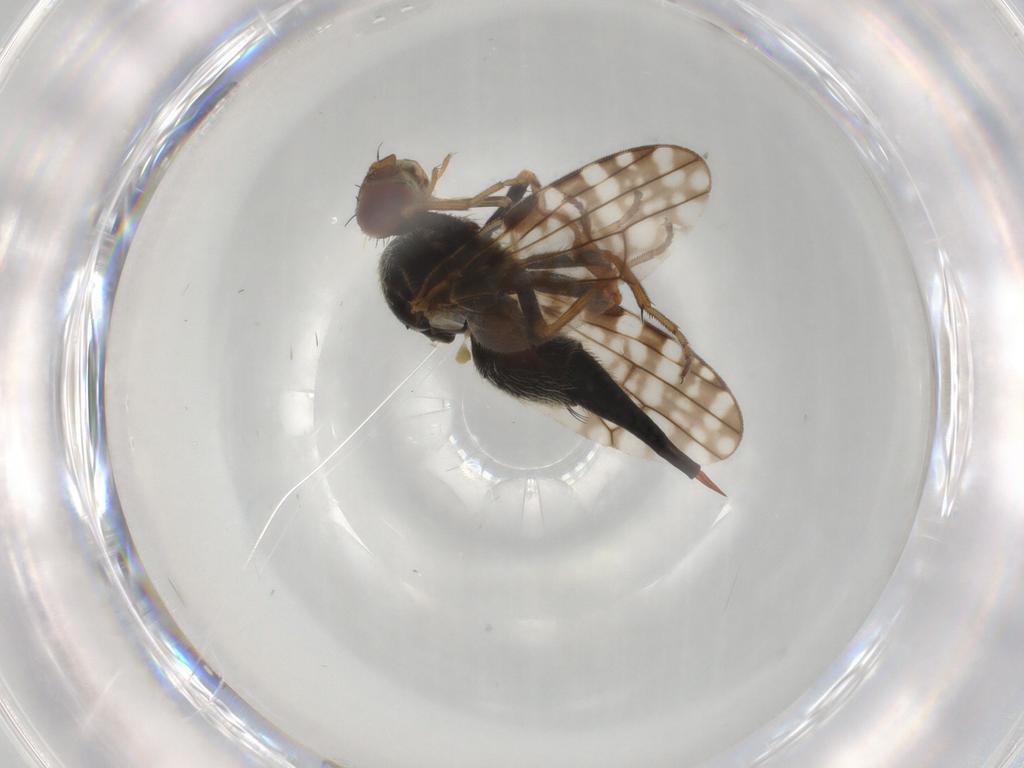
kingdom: Animalia
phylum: Arthropoda
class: Insecta
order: Diptera
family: Tephritidae
